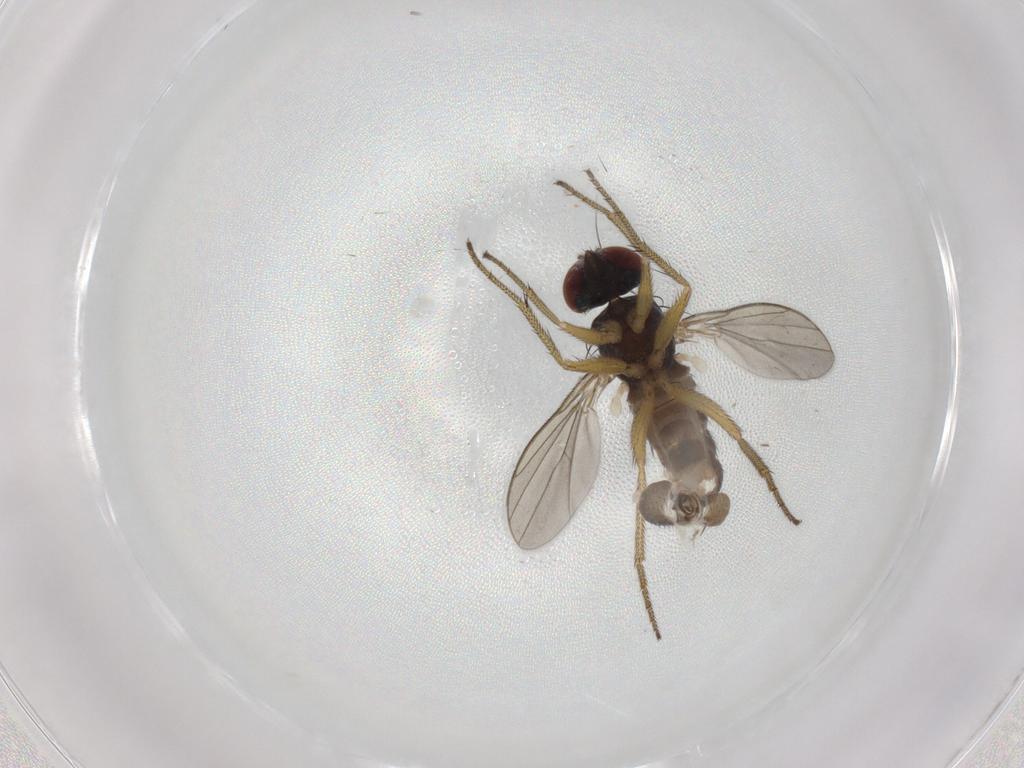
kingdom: Animalia
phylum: Arthropoda
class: Insecta
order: Diptera
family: Dolichopodidae
